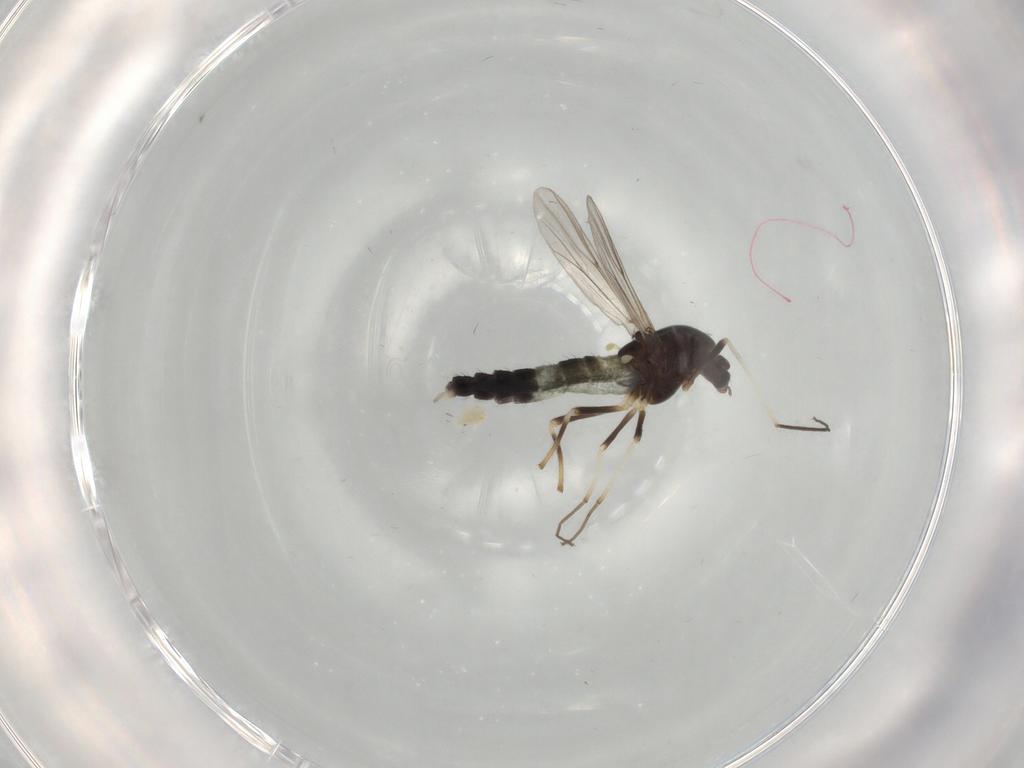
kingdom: Animalia
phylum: Arthropoda
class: Insecta
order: Diptera
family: Chironomidae
